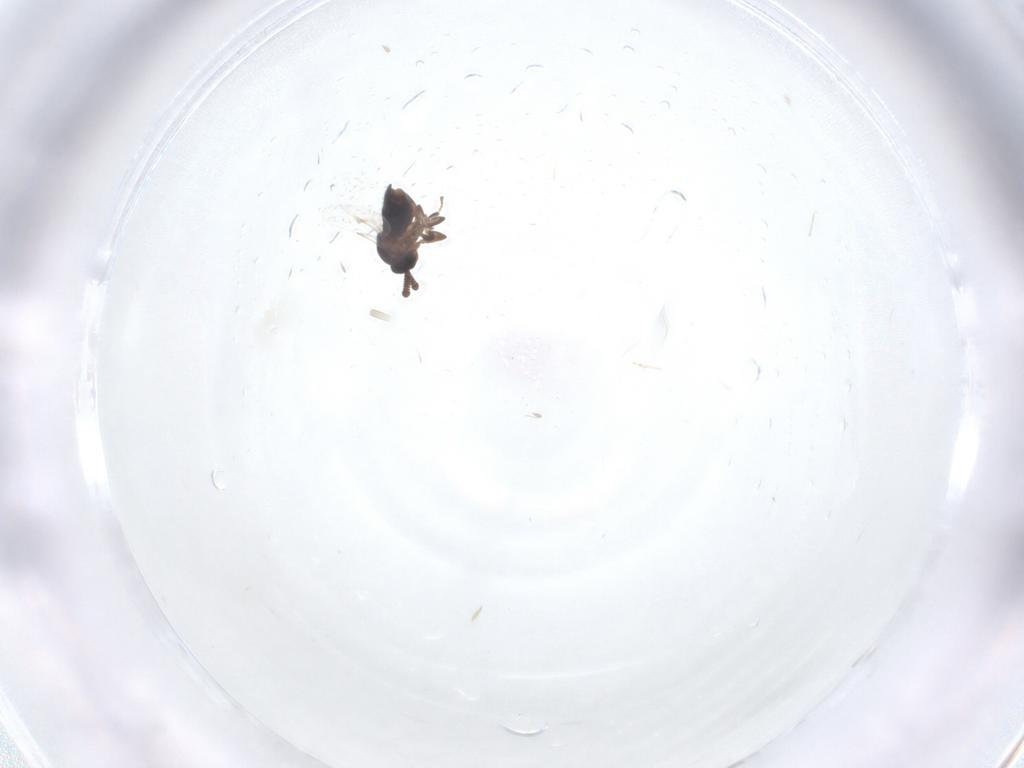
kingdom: Animalia
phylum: Arthropoda
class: Insecta
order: Diptera
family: Scatopsidae
